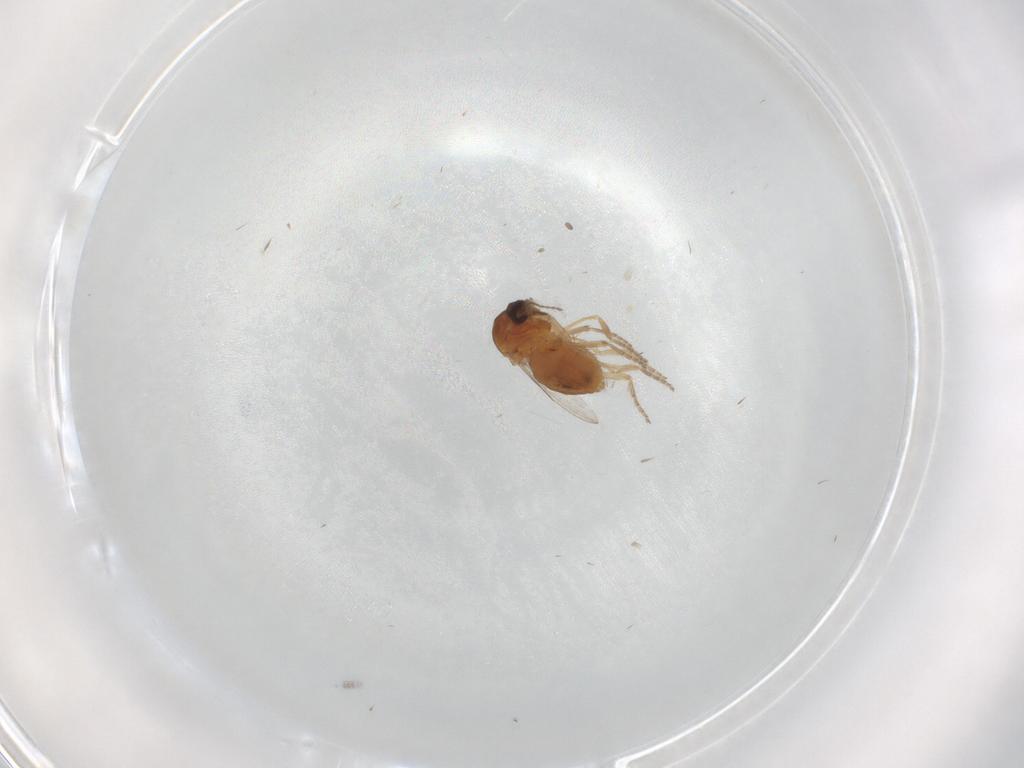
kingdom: Animalia
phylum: Arthropoda
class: Insecta
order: Diptera
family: Ceratopogonidae
